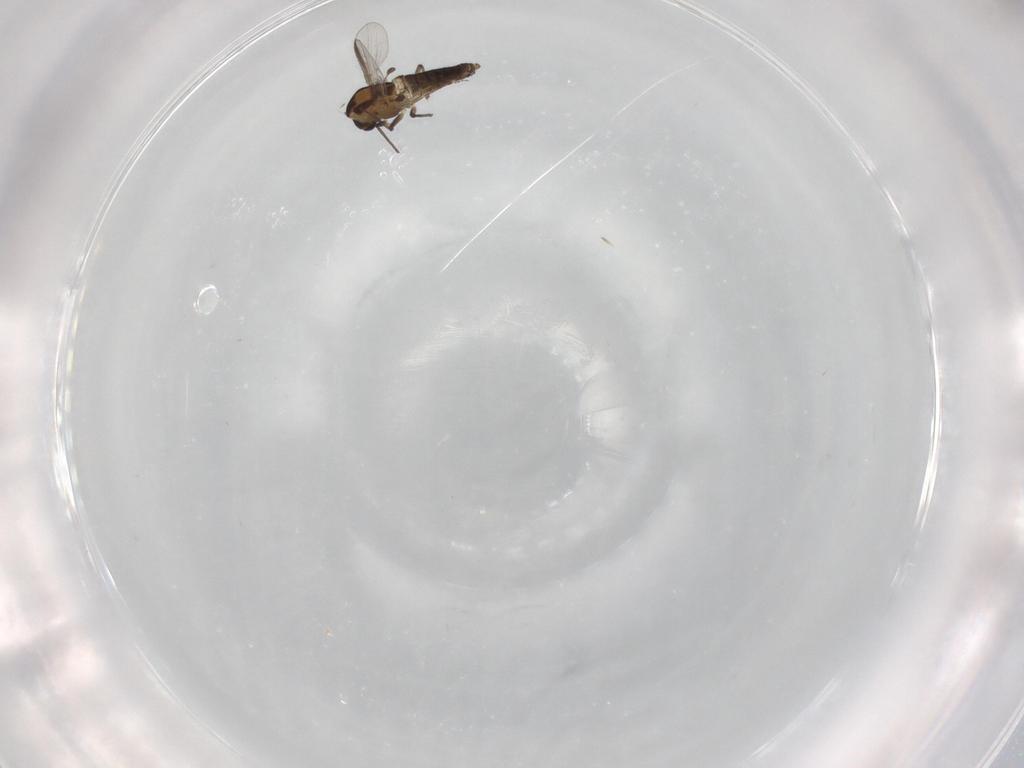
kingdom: Animalia
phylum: Arthropoda
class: Insecta
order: Diptera
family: Chironomidae
